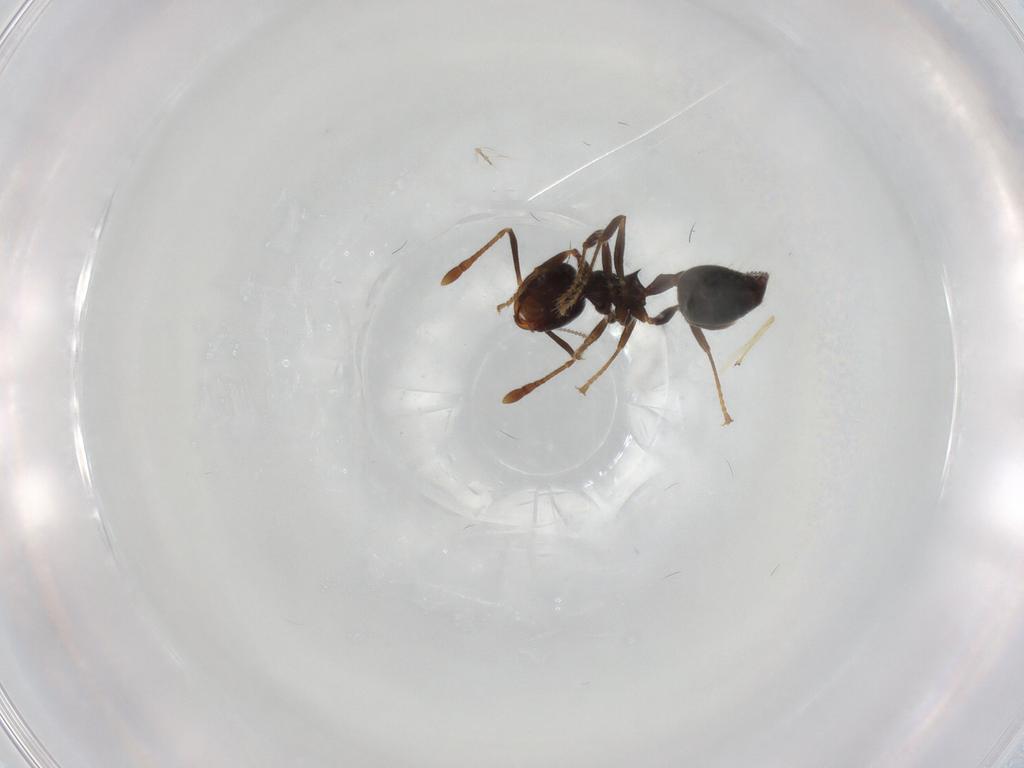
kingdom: Animalia
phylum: Arthropoda
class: Insecta
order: Hymenoptera
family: Formicidae
